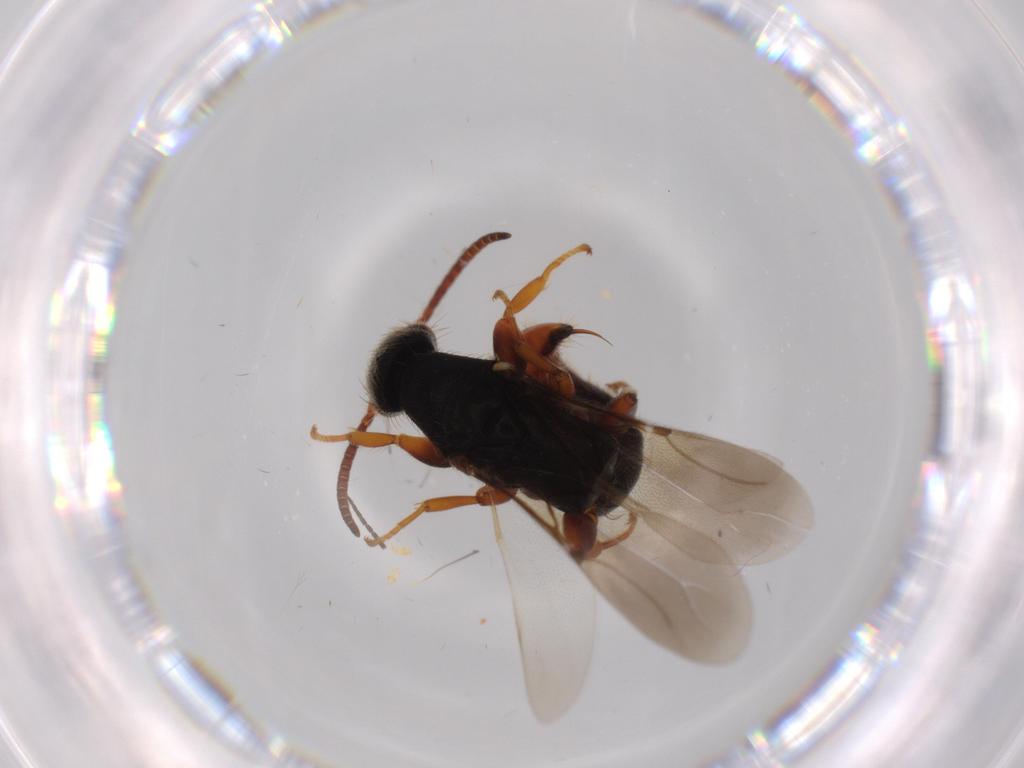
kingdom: Animalia
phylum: Arthropoda
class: Insecta
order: Hymenoptera
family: Bethylidae
